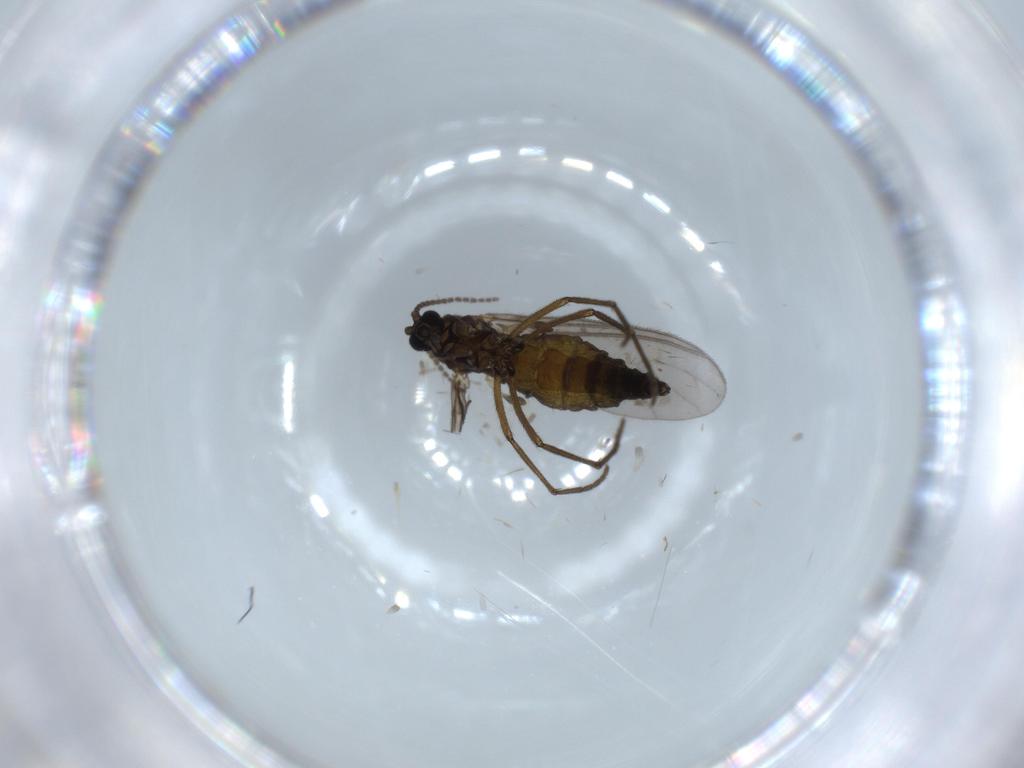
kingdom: Animalia
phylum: Arthropoda
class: Insecta
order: Diptera
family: Sciaridae
